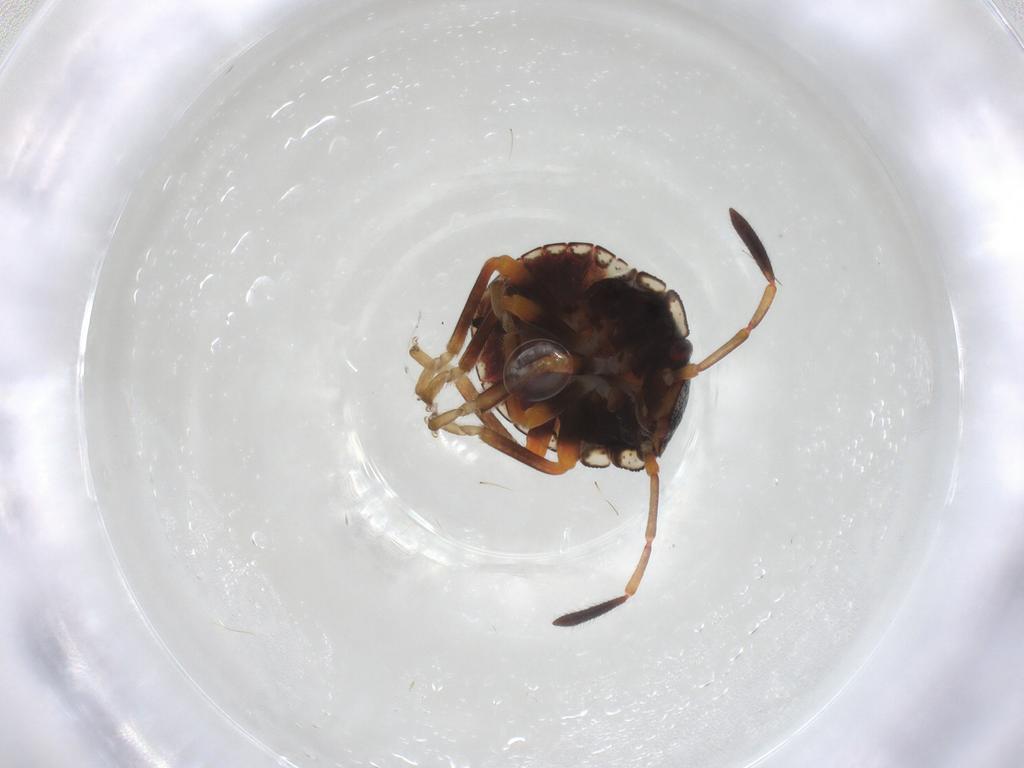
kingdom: Animalia
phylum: Arthropoda
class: Insecta
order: Hemiptera
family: Pentatomidae
